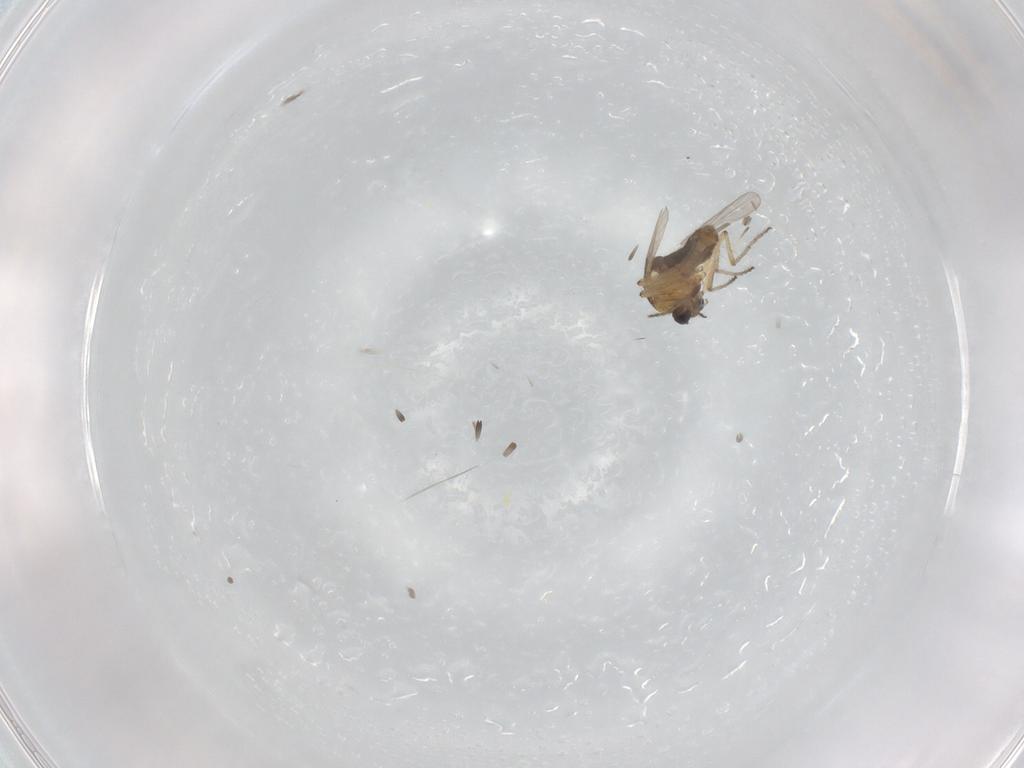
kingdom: Animalia
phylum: Arthropoda
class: Insecta
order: Diptera
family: Ceratopogonidae
